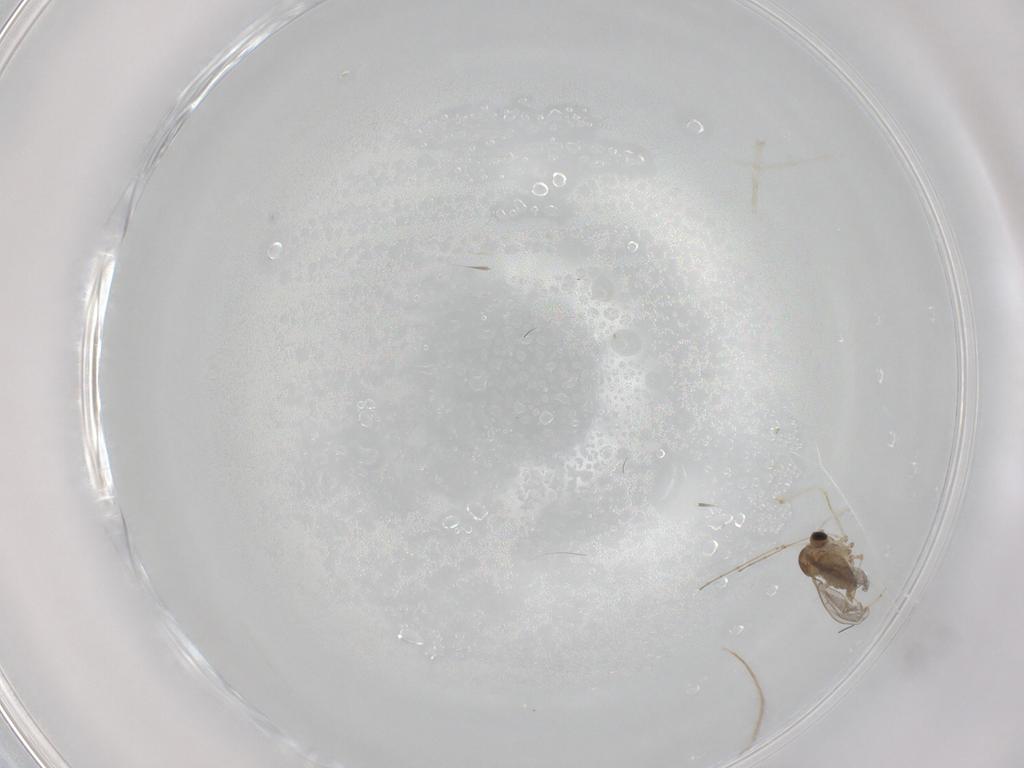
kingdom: Animalia
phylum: Arthropoda
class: Insecta
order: Diptera
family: Cecidomyiidae
